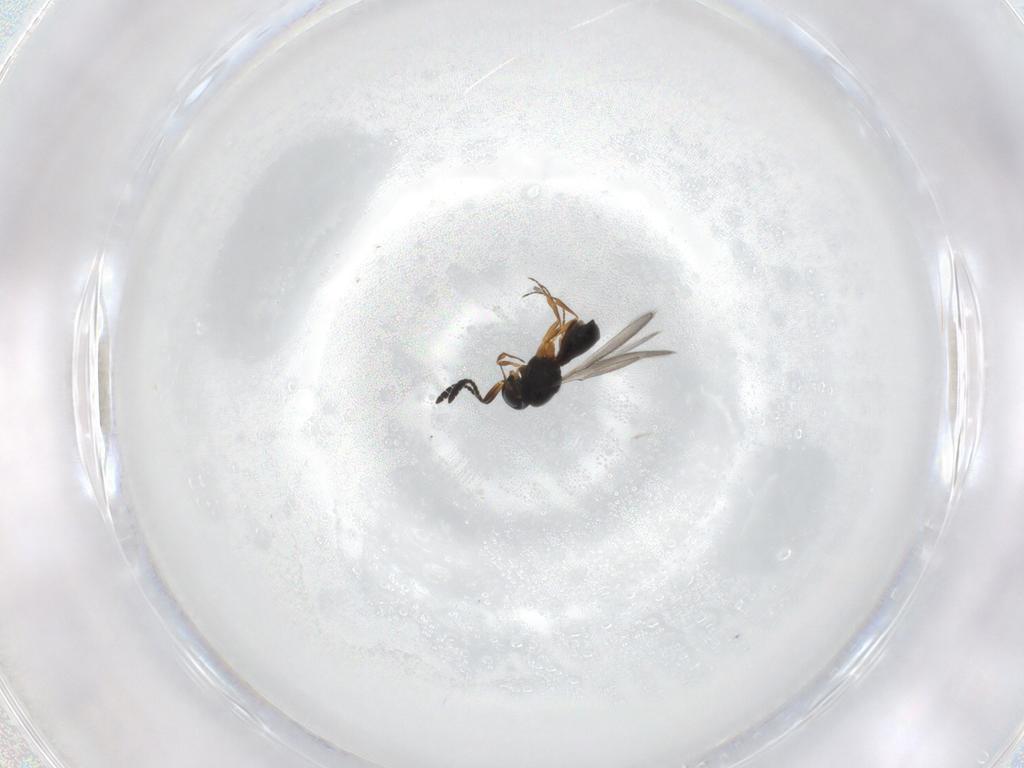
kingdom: Animalia
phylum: Arthropoda
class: Insecta
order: Hymenoptera
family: Scelionidae
